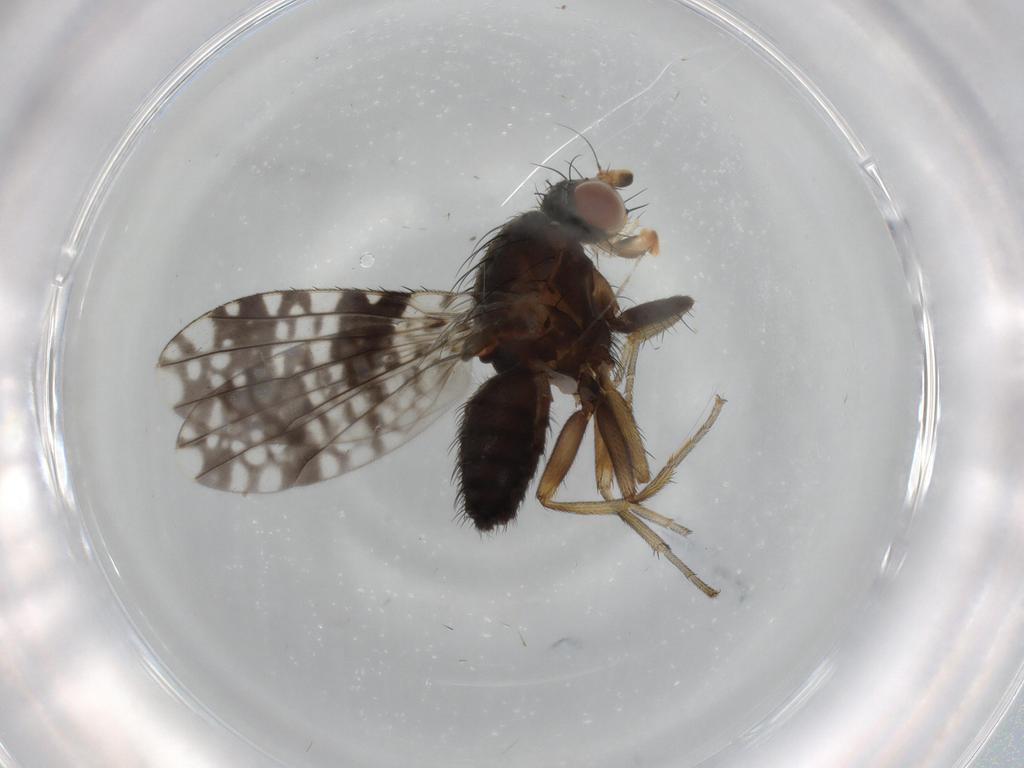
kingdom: Animalia
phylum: Arthropoda
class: Insecta
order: Diptera
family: Tephritidae
